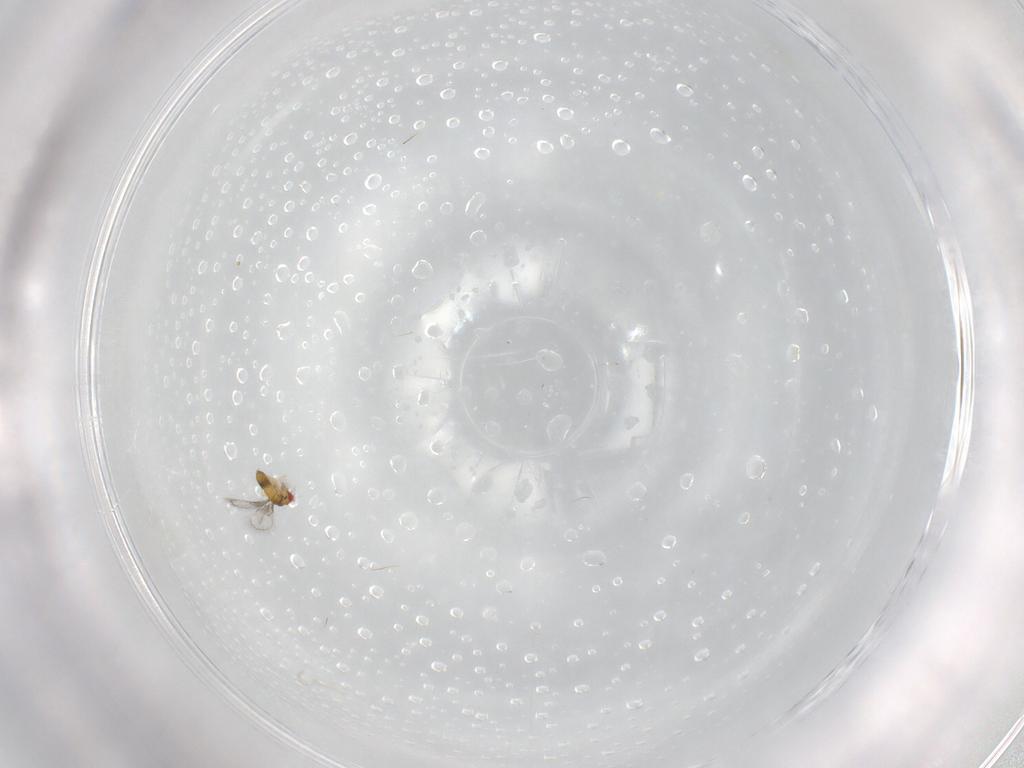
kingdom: Animalia
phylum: Arthropoda
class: Insecta
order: Hymenoptera
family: Trichogrammatidae
